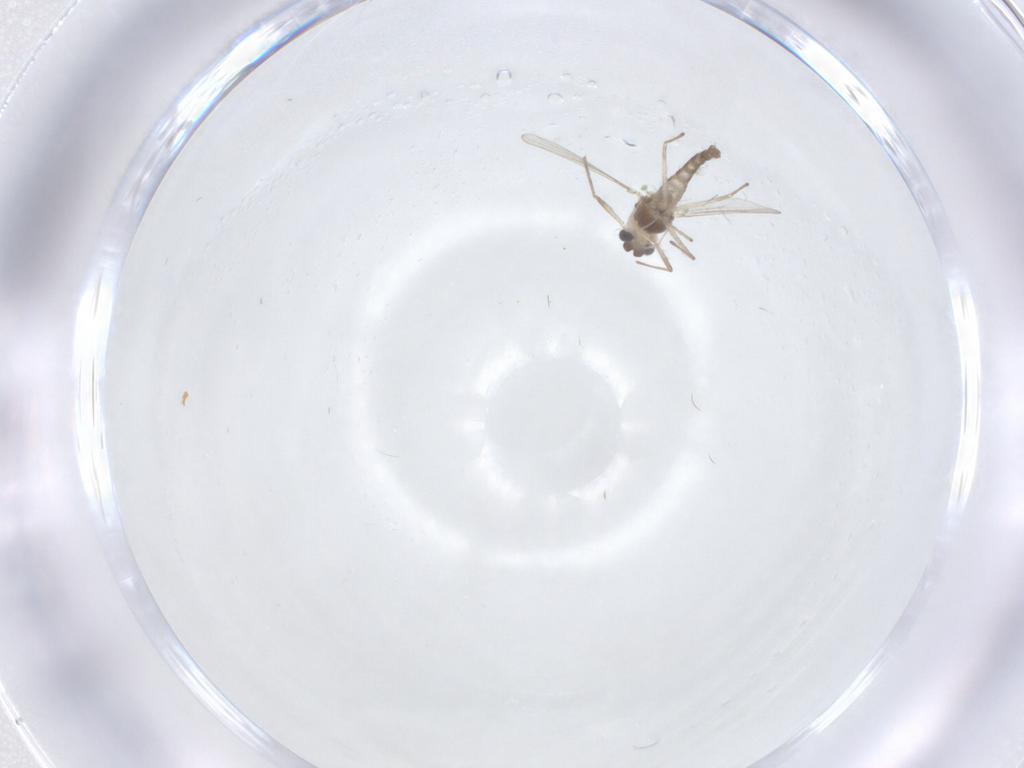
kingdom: Animalia
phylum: Arthropoda
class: Insecta
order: Diptera
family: Chironomidae
